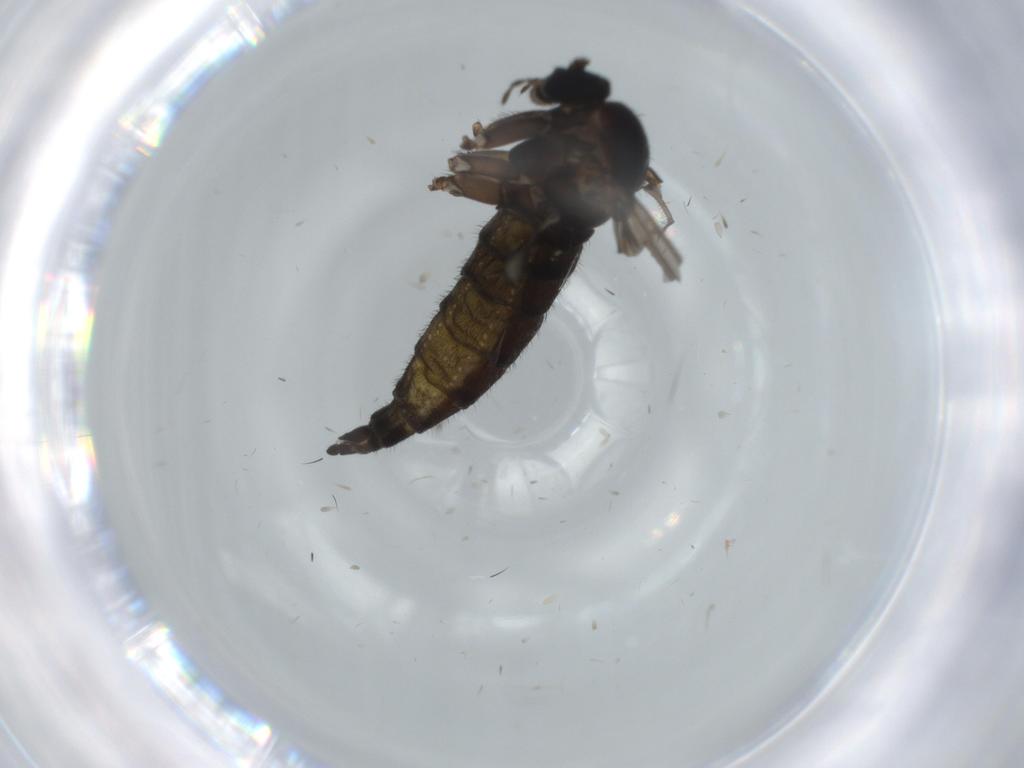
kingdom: Animalia
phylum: Arthropoda
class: Insecta
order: Diptera
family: Sciaridae
